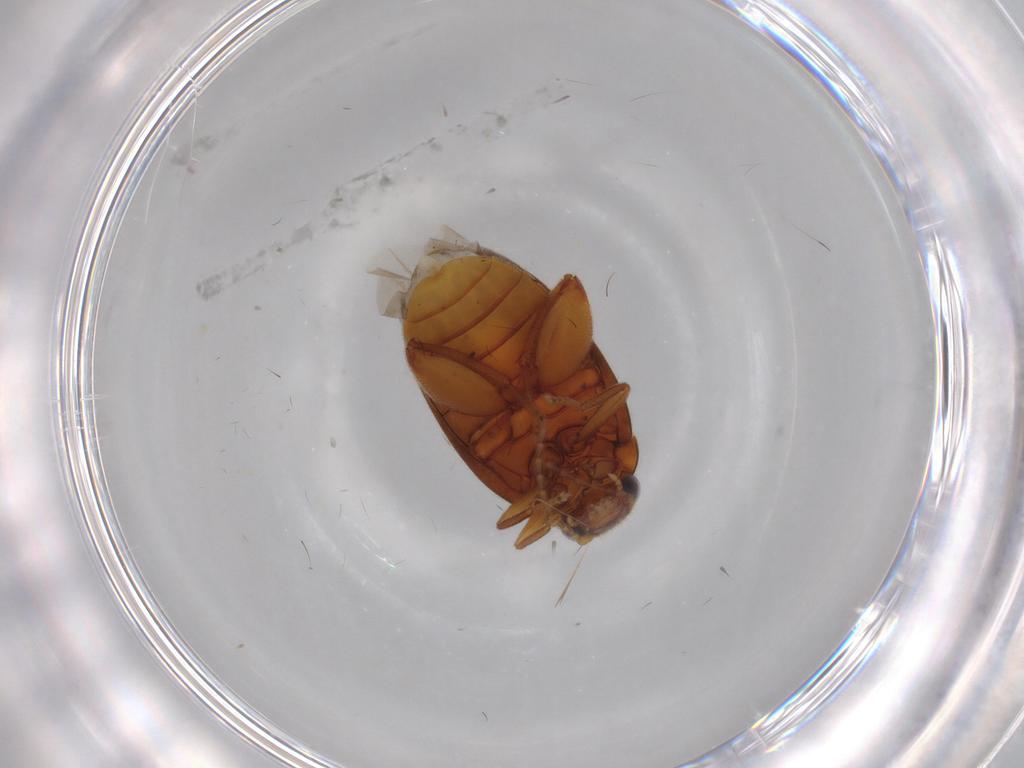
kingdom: Animalia
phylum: Arthropoda
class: Insecta
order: Coleoptera
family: Scirtidae
